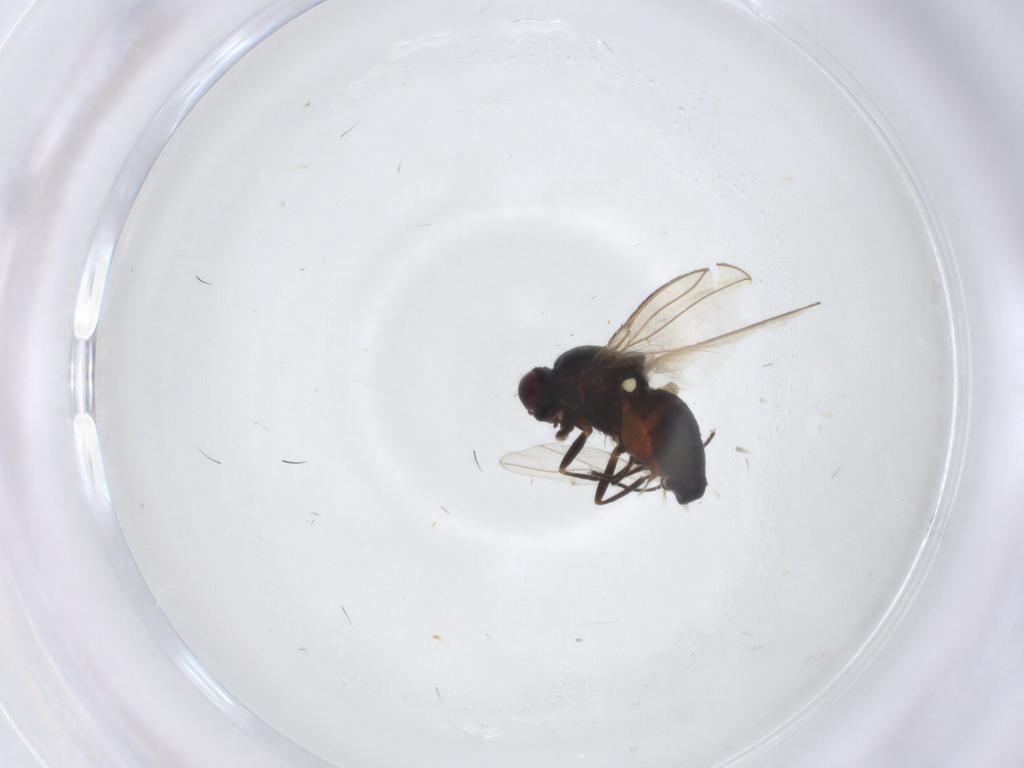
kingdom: Animalia
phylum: Arthropoda
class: Insecta
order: Diptera
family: Carnidae
